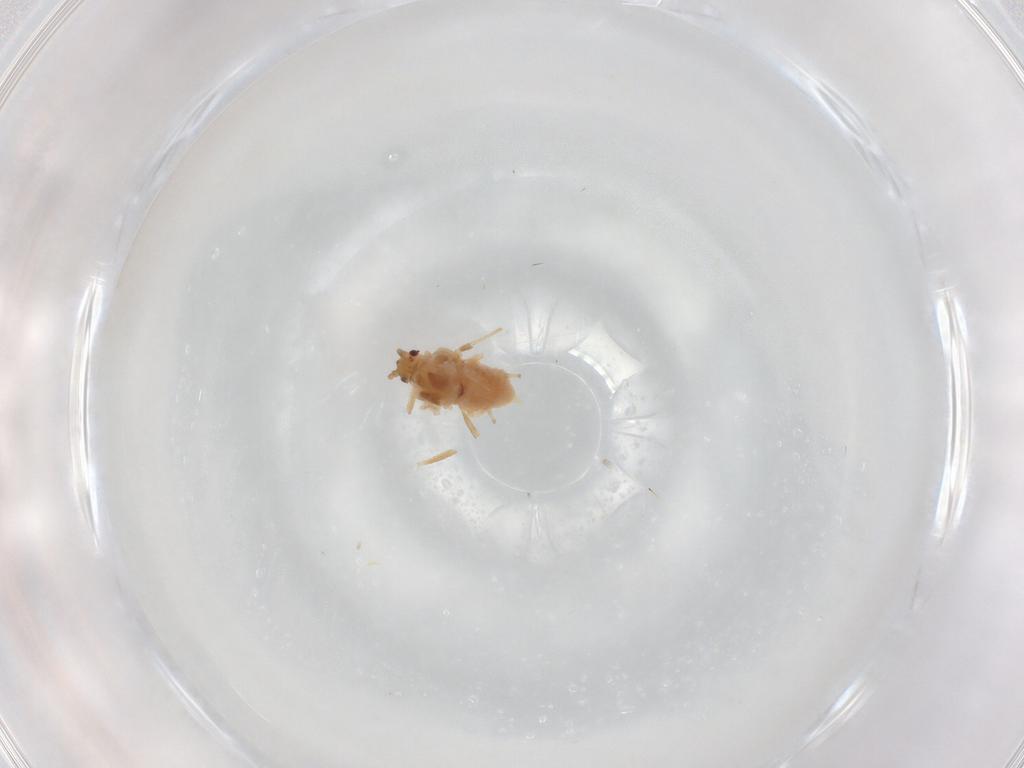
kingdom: Animalia
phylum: Arthropoda
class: Insecta
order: Hemiptera
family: Aphididae
